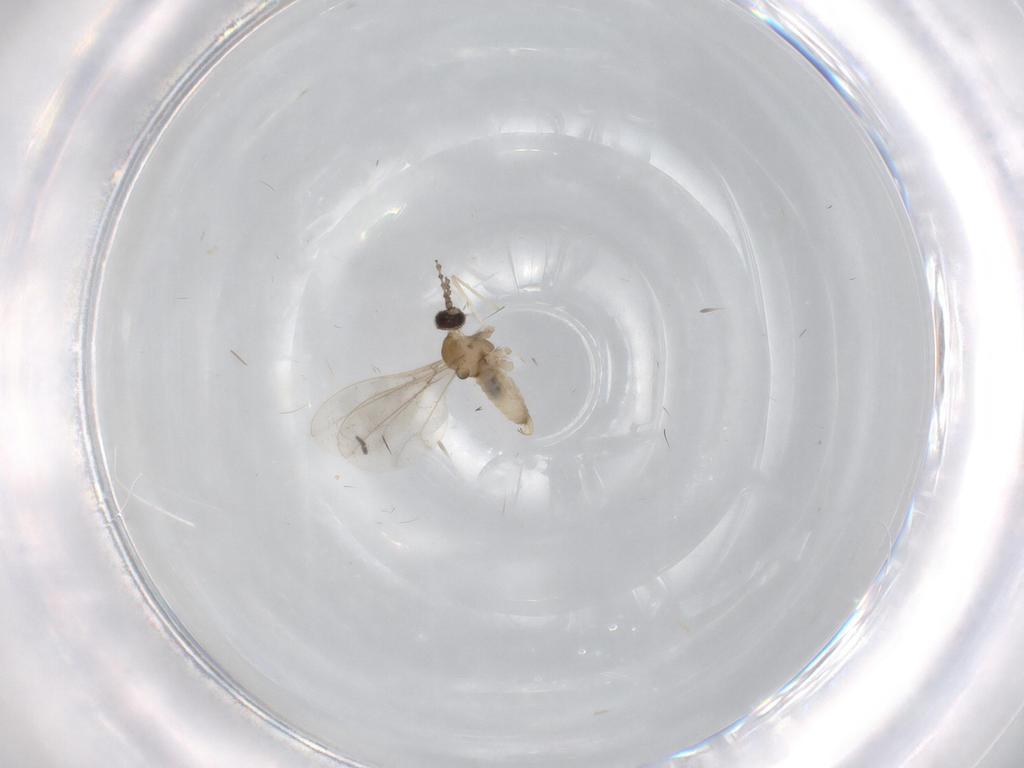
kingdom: Animalia
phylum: Arthropoda
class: Insecta
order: Diptera
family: Cecidomyiidae
